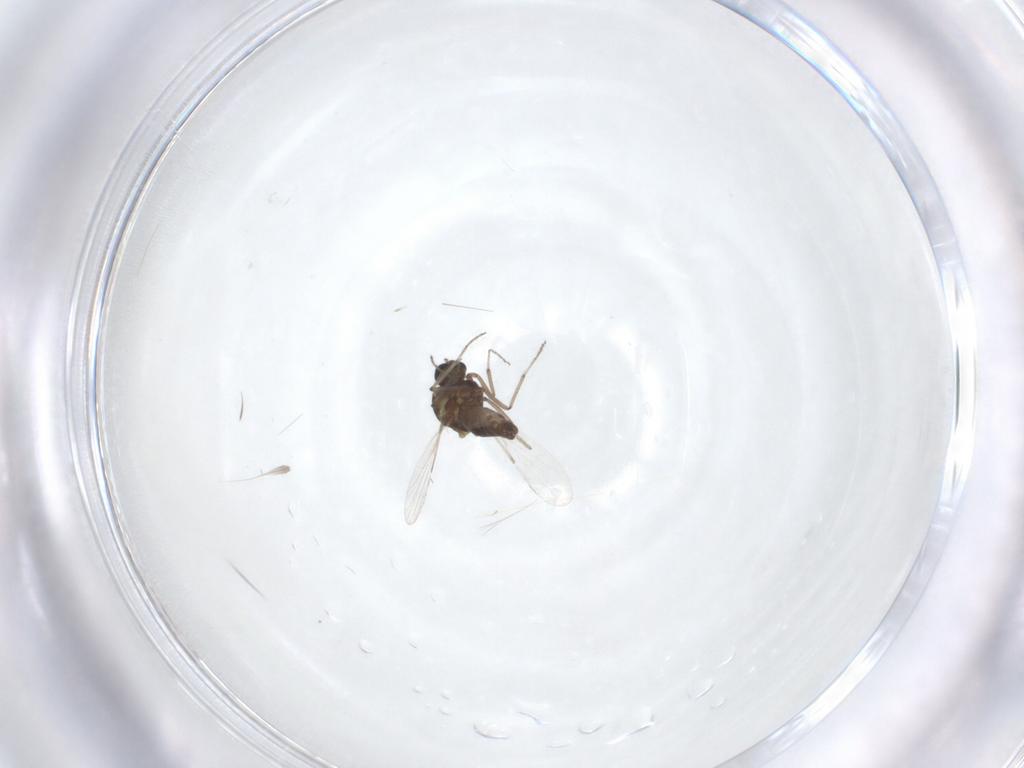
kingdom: Animalia
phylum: Arthropoda
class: Insecta
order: Diptera
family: Ceratopogonidae
